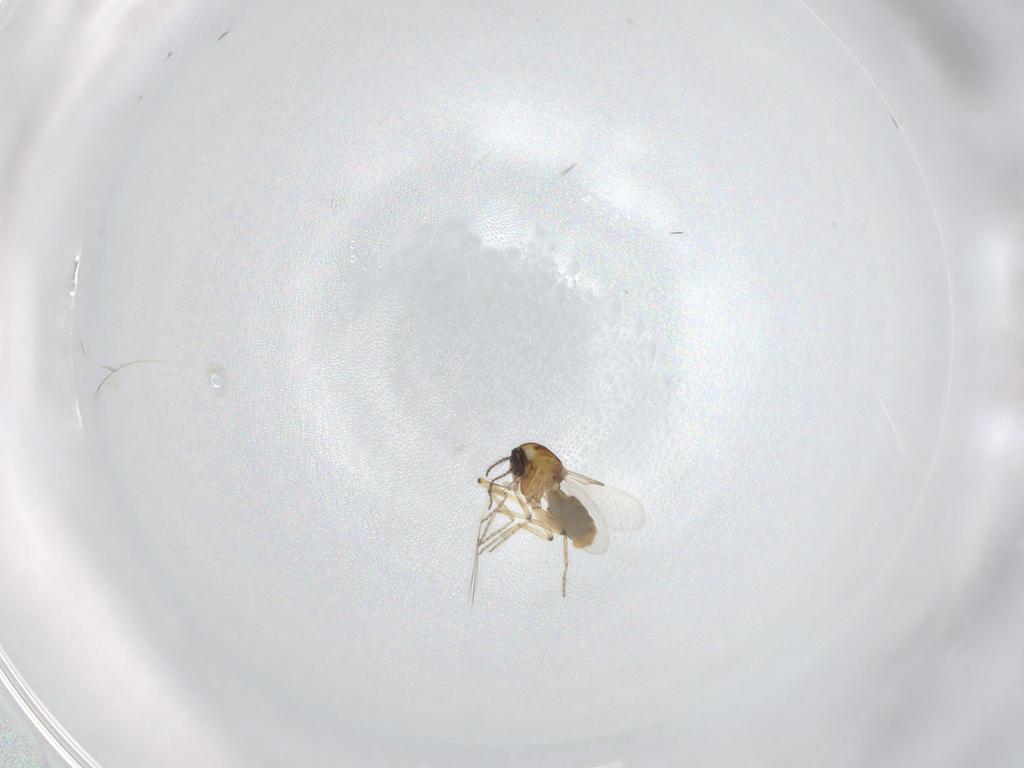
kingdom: Animalia
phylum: Arthropoda
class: Insecta
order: Diptera
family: Ceratopogonidae
